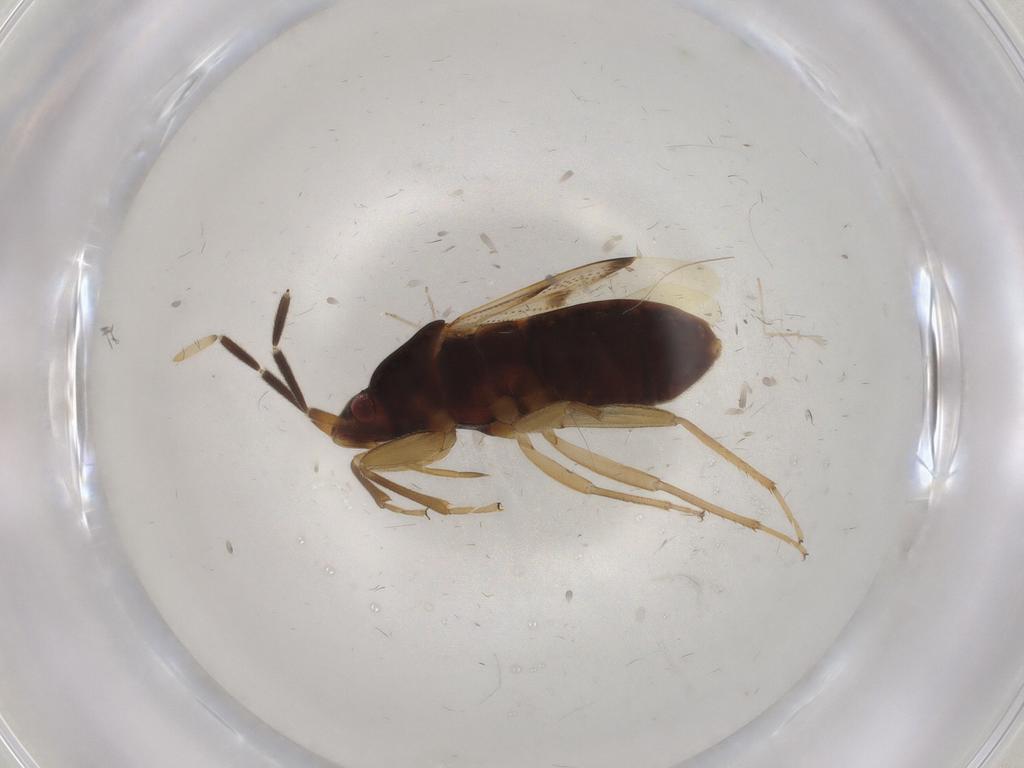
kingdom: Animalia
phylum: Arthropoda
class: Insecta
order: Hemiptera
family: Rhyparochromidae
